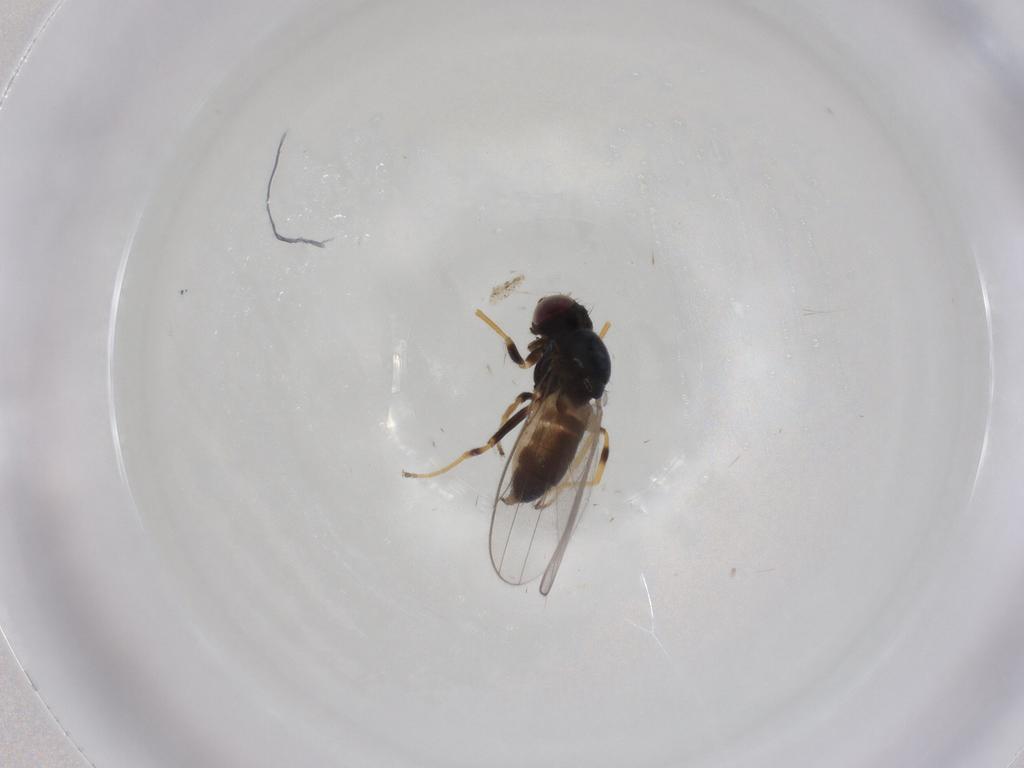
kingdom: Animalia
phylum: Arthropoda
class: Insecta
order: Diptera
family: Chloropidae
